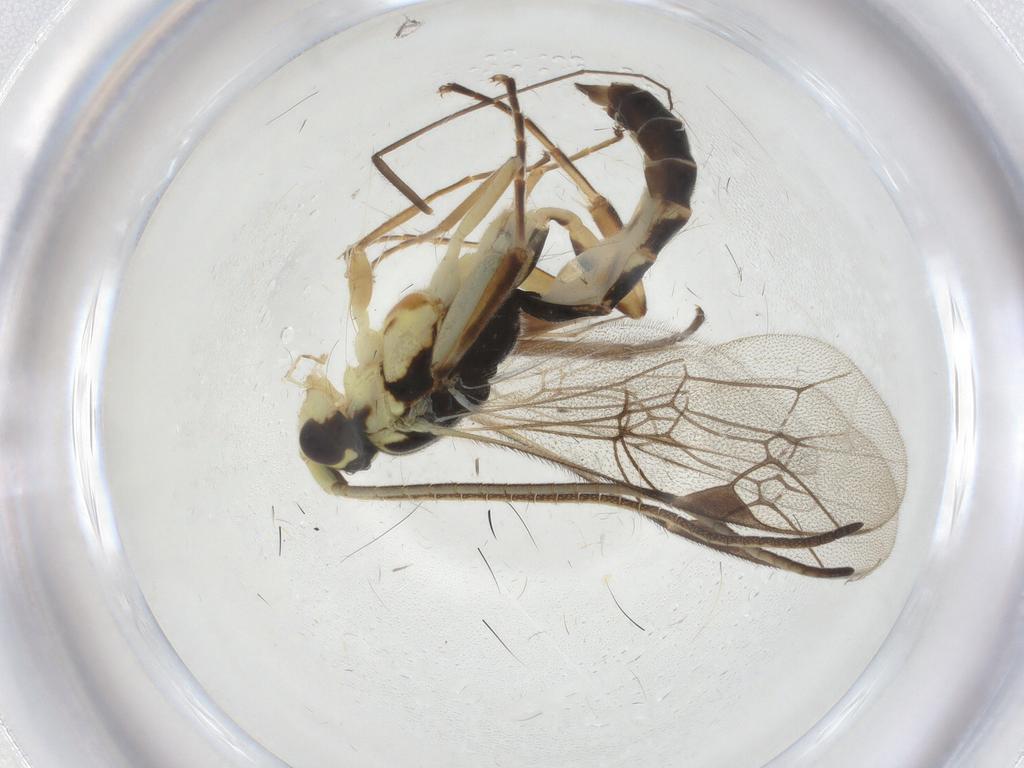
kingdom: Animalia
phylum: Arthropoda
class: Insecta
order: Hymenoptera
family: Ichneumonidae
